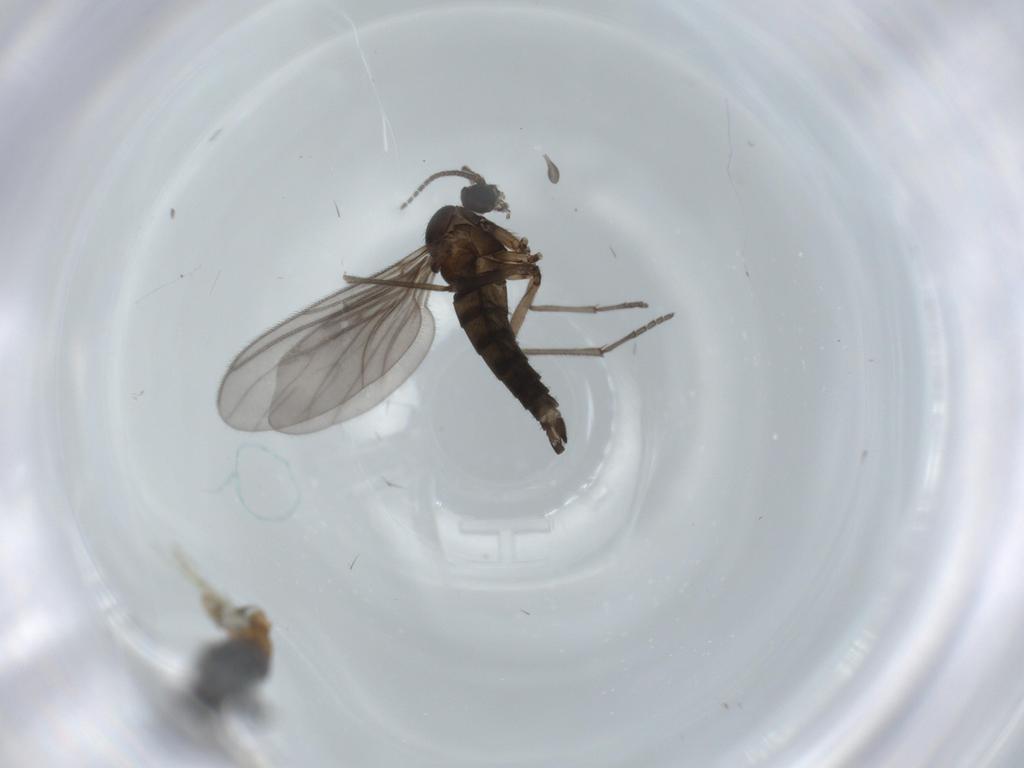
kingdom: Animalia
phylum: Arthropoda
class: Insecta
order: Diptera
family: Sciaridae
